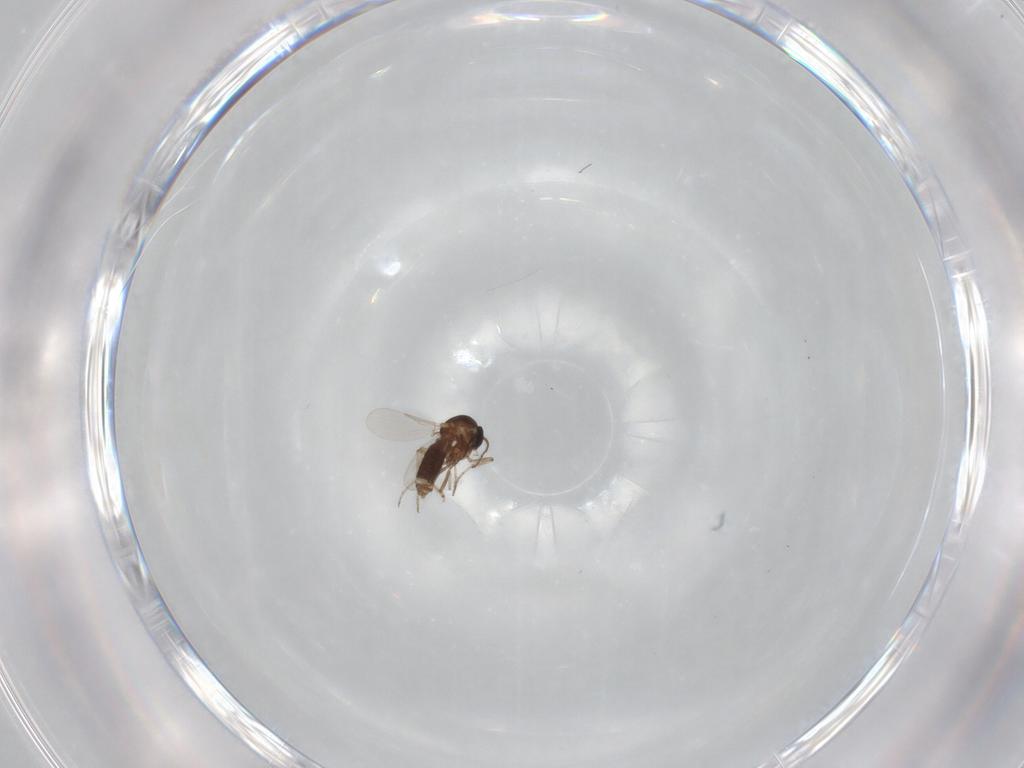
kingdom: Animalia
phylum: Arthropoda
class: Insecta
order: Diptera
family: Ceratopogonidae
